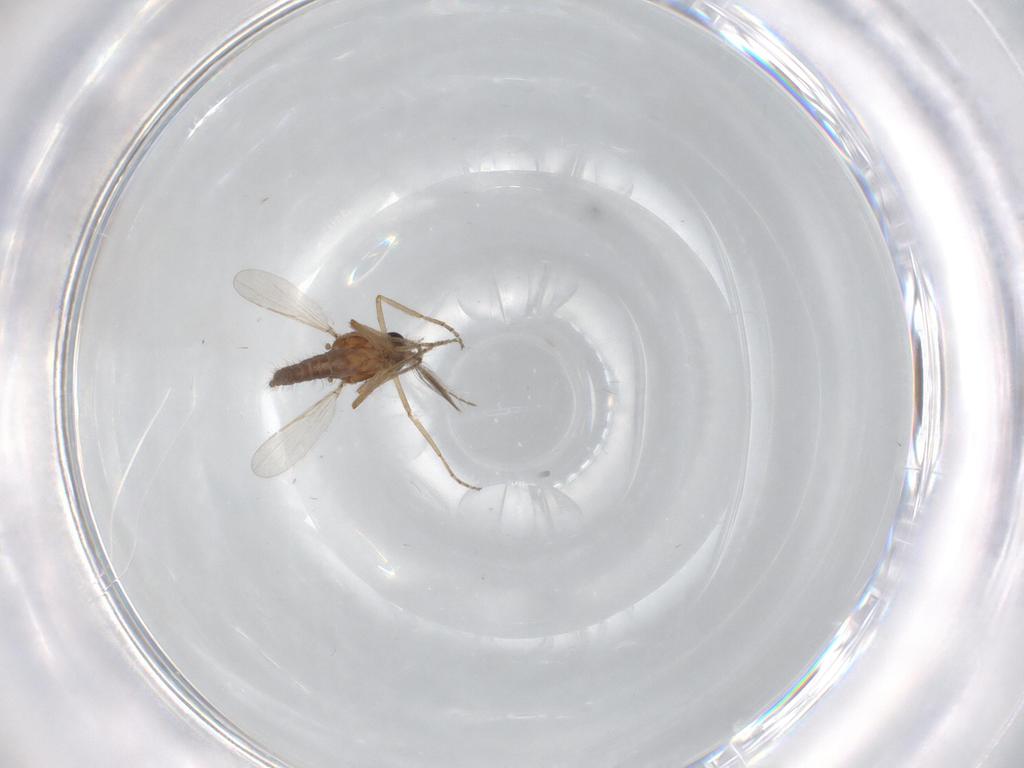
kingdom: Animalia
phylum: Arthropoda
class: Insecta
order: Diptera
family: Ceratopogonidae
